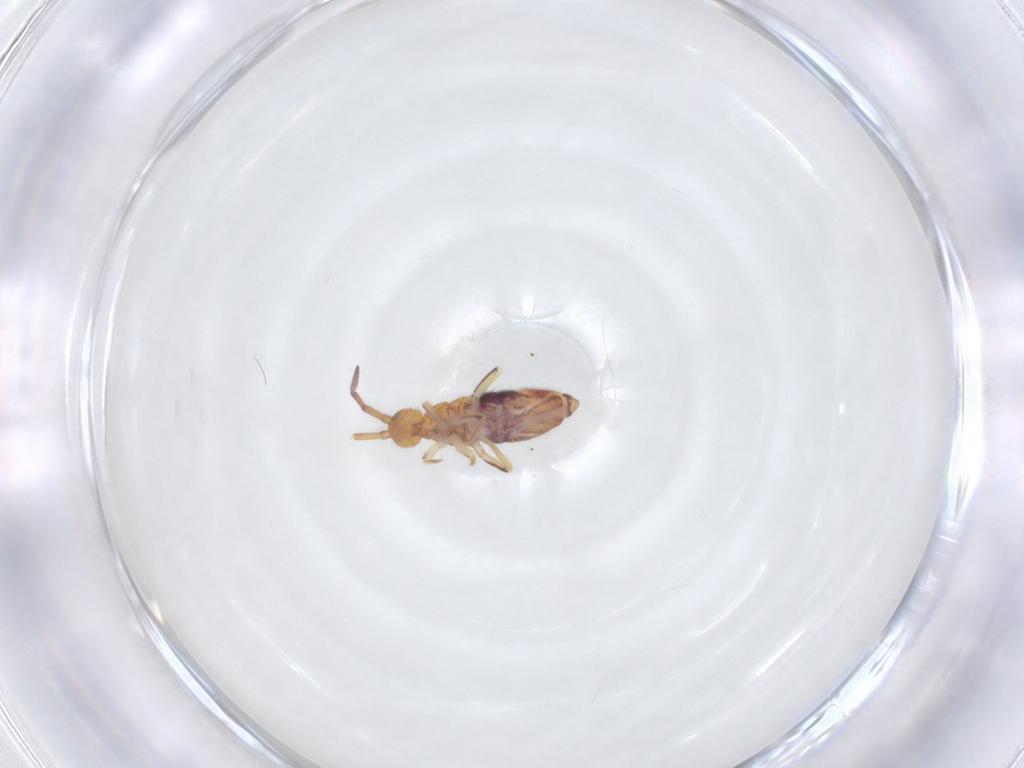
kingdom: Animalia
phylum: Arthropoda
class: Collembola
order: Entomobryomorpha
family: Entomobryidae
